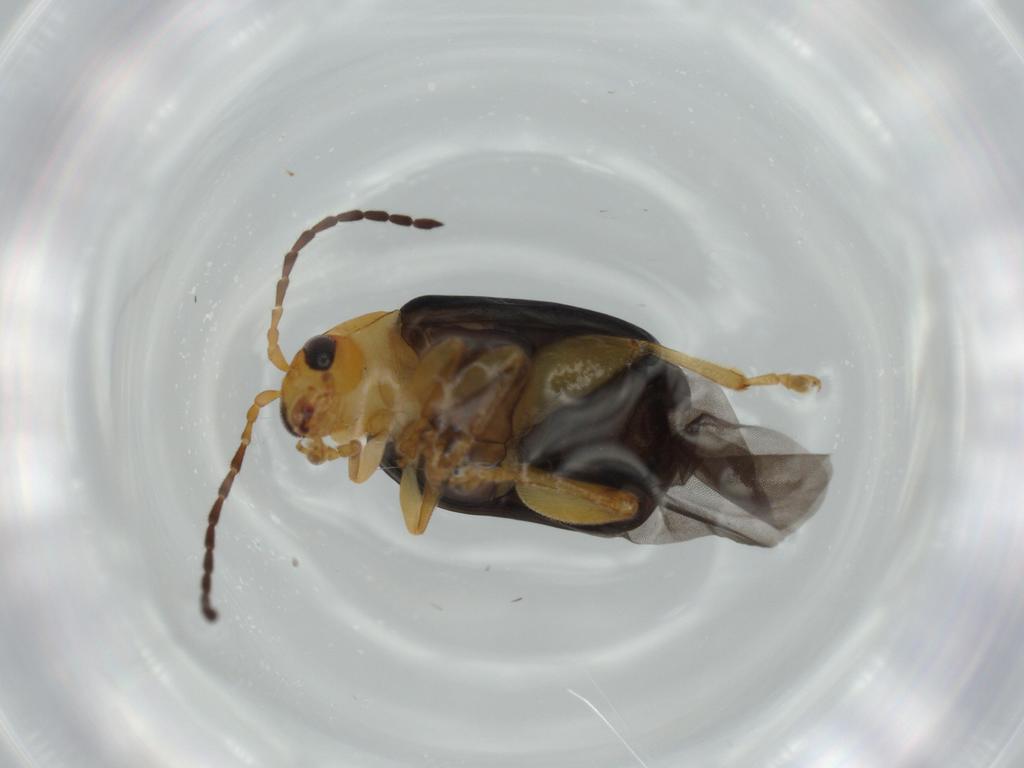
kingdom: Animalia
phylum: Arthropoda
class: Insecta
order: Coleoptera
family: Chrysomelidae
